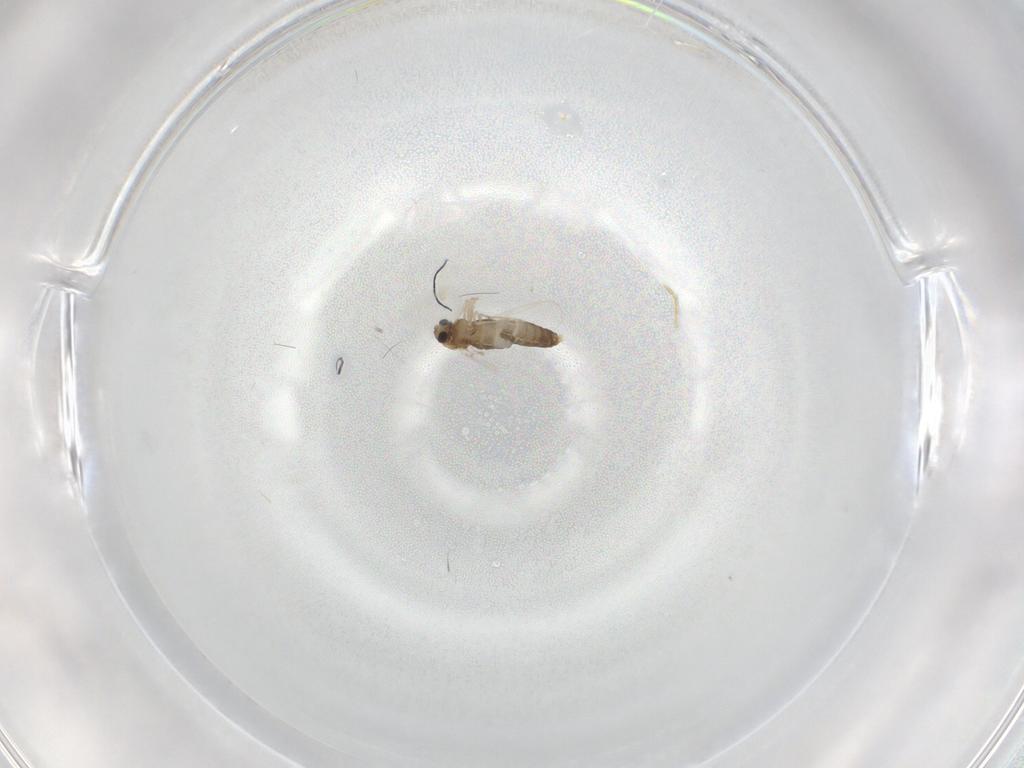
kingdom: Animalia
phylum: Arthropoda
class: Insecta
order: Diptera
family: Chironomidae
